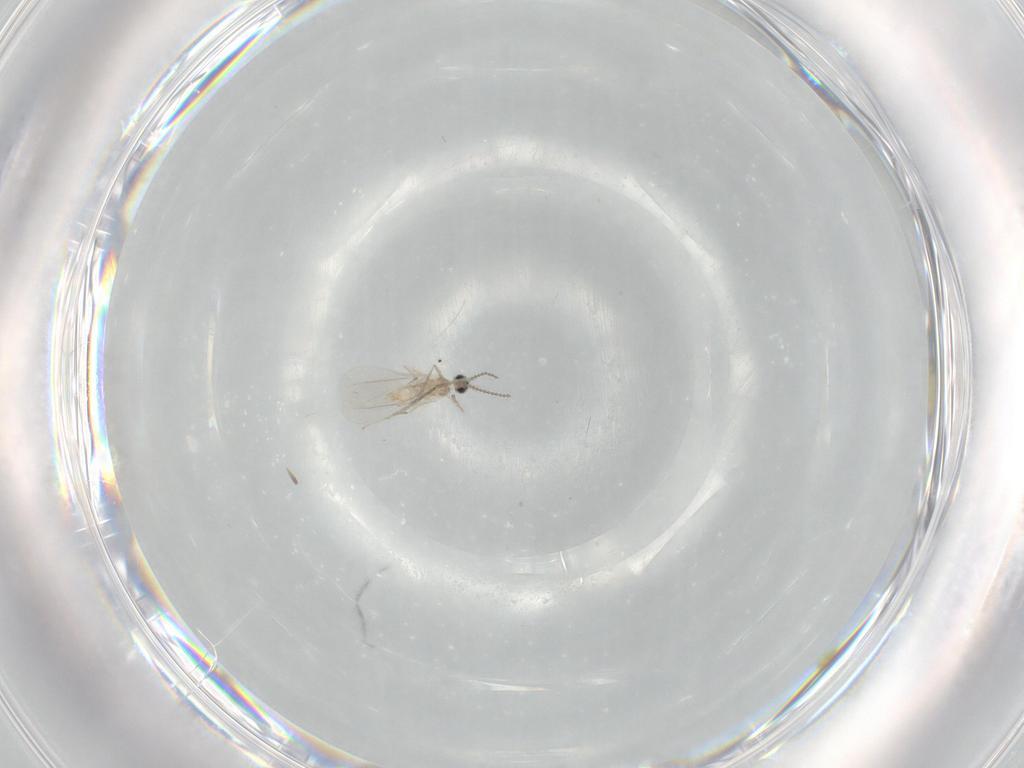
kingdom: Animalia
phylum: Arthropoda
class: Insecta
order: Diptera
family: Cecidomyiidae
